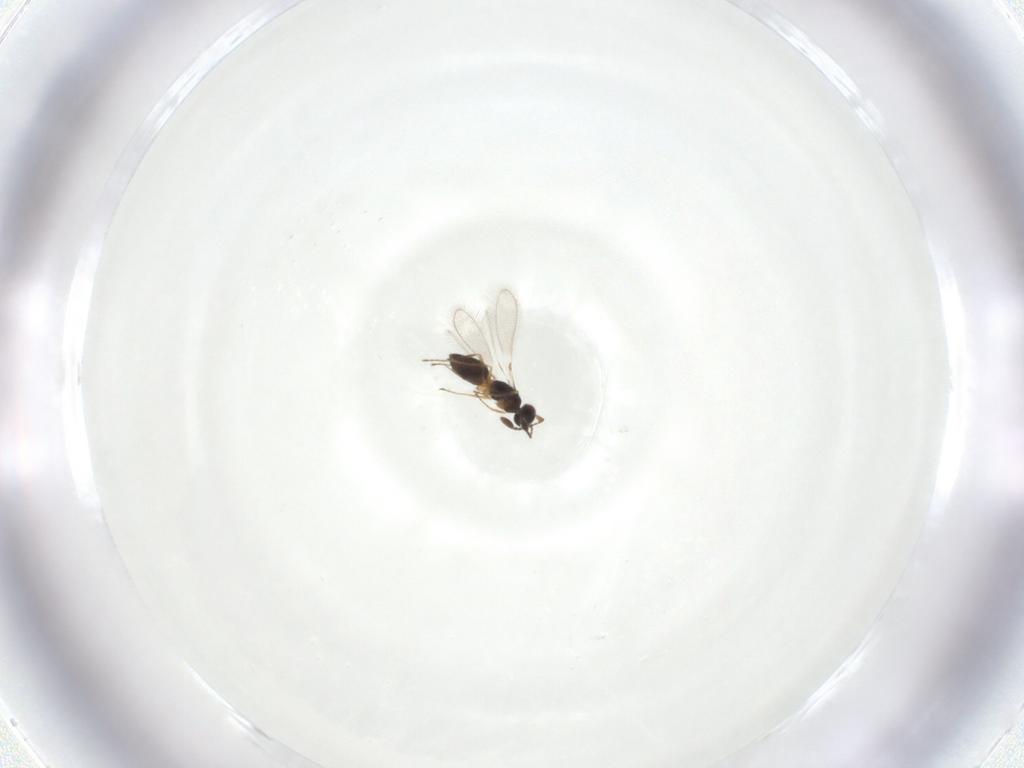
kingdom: Animalia
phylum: Arthropoda
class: Insecta
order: Hymenoptera
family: Mymaridae
